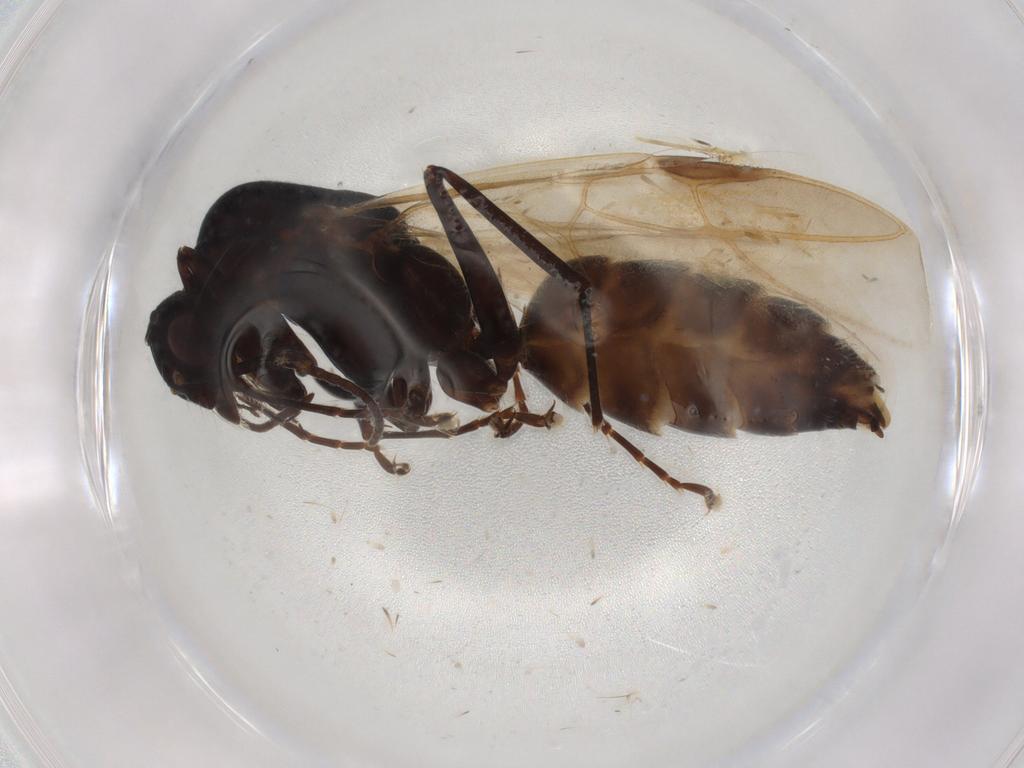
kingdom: Animalia
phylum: Arthropoda
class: Insecta
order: Hymenoptera
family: Formicidae
